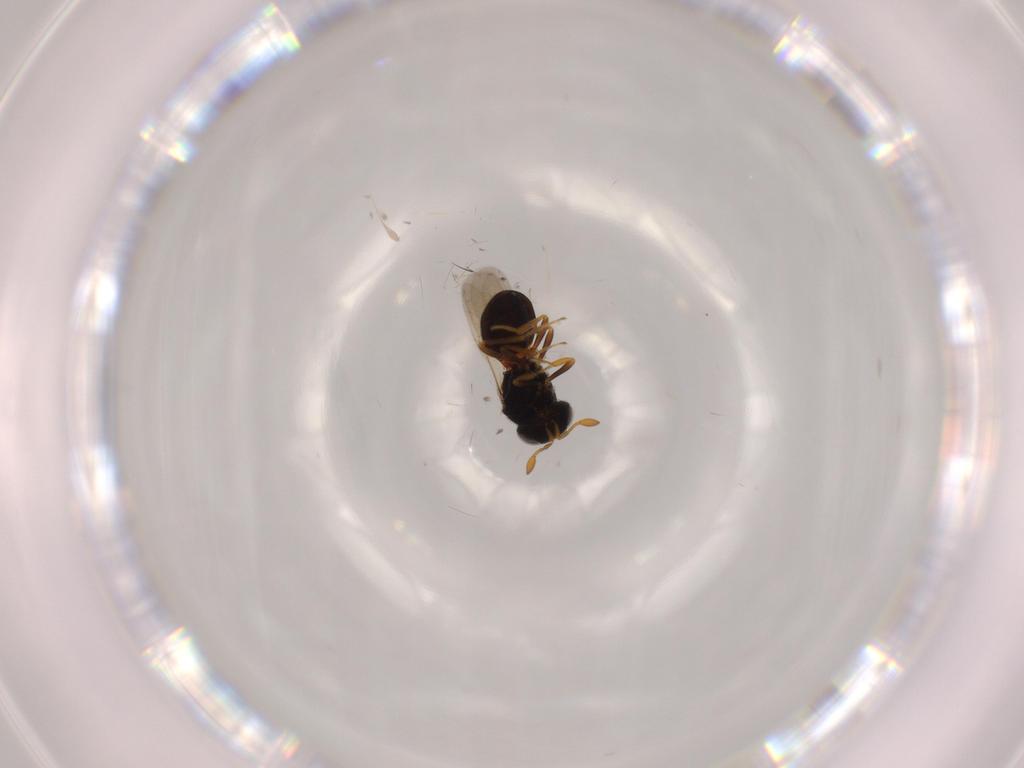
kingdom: Animalia
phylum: Arthropoda
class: Insecta
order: Hymenoptera
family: Scelionidae
